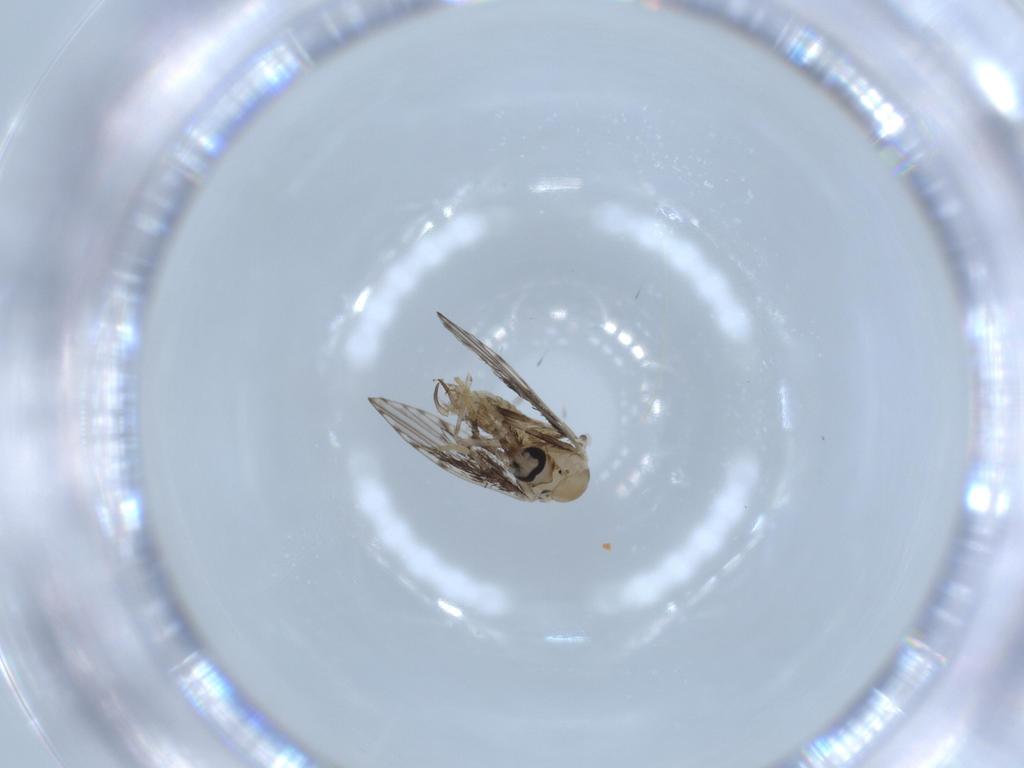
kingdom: Animalia
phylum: Arthropoda
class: Insecta
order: Diptera
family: Psychodidae
